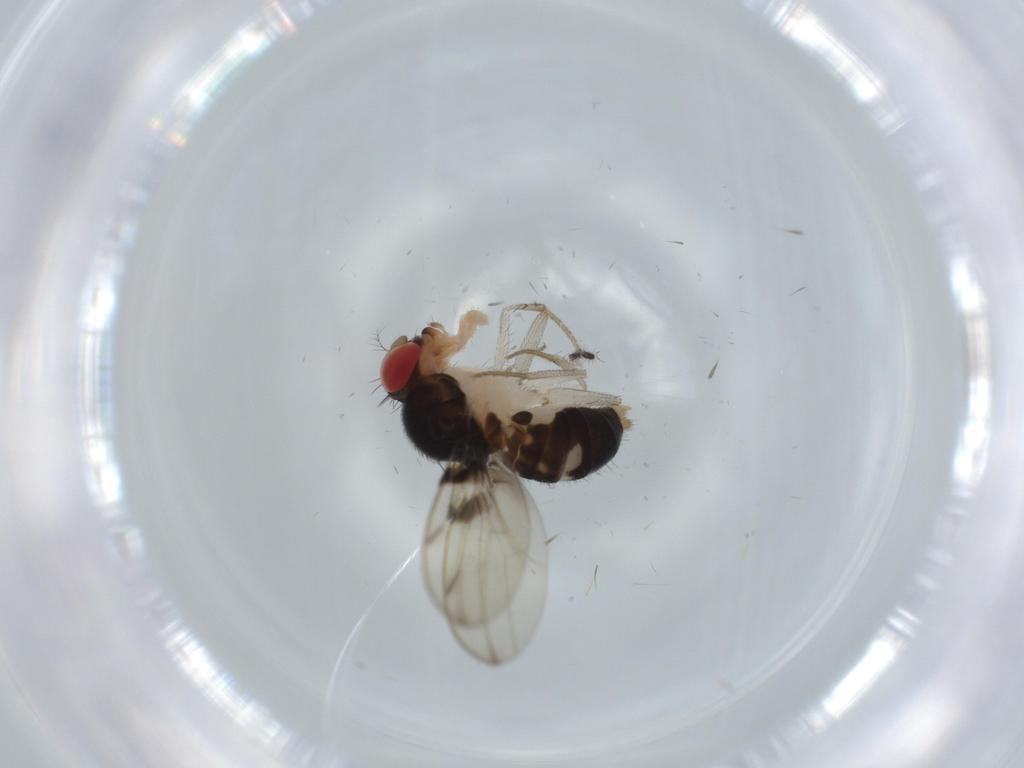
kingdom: Animalia
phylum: Arthropoda
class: Insecta
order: Diptera
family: Drosophilidae
